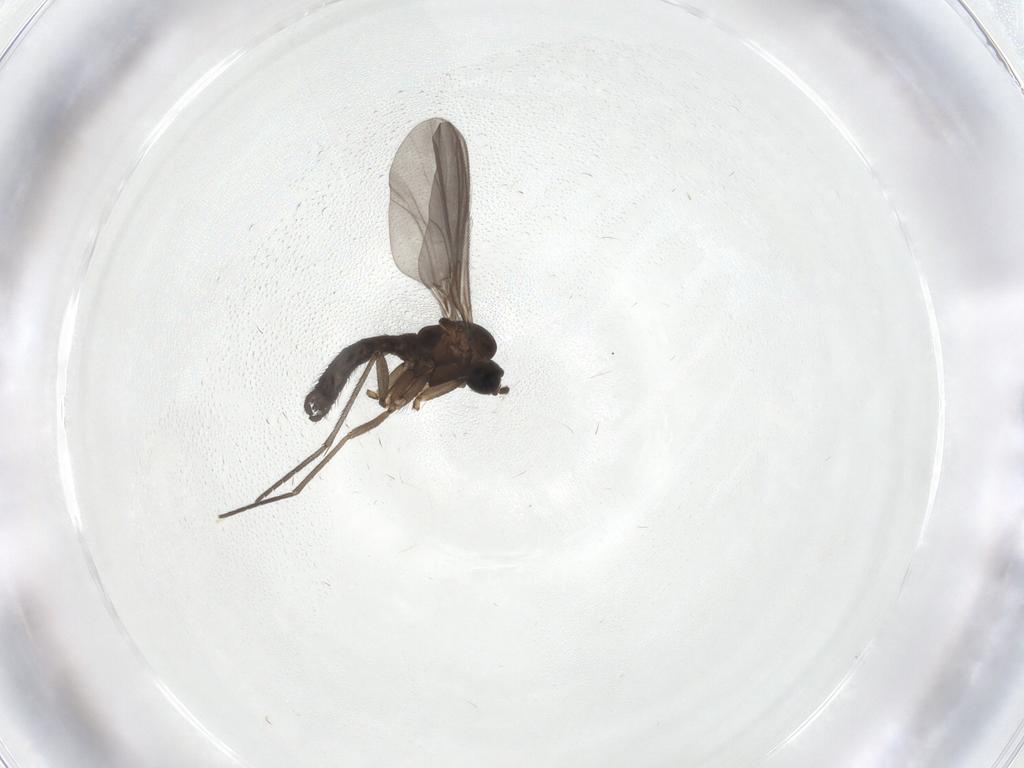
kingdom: Animalia
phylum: Arthropoda
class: Insecta
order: Diptera
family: Sciaridae
